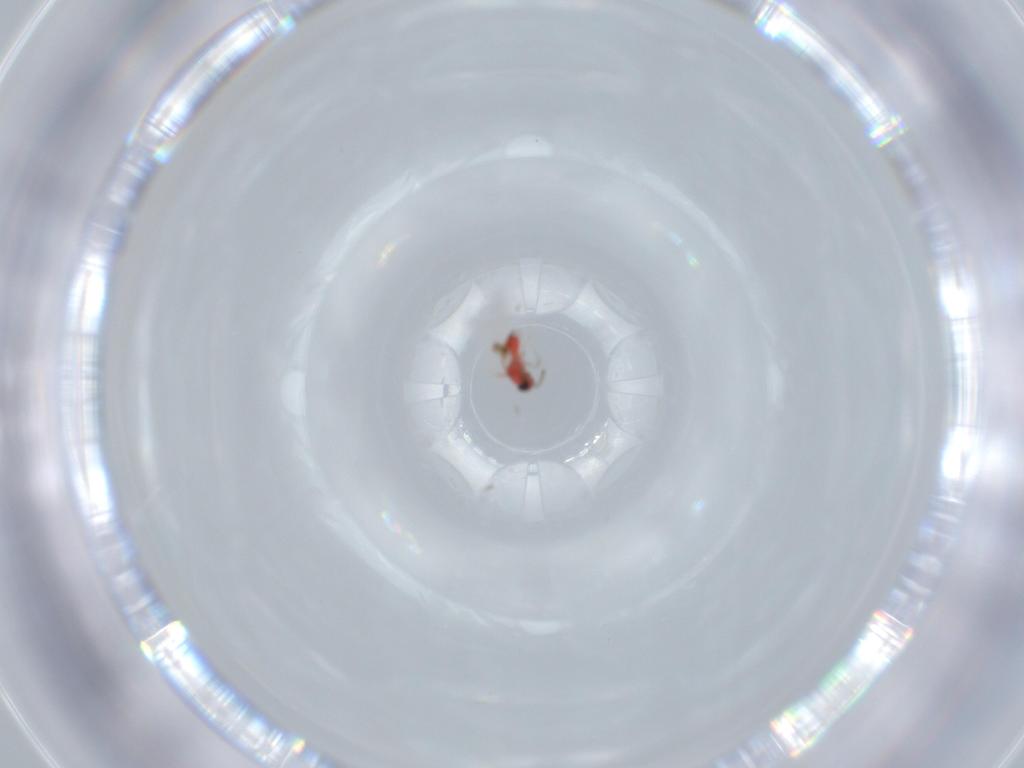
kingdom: Animalia
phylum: Arthropoda
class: Insecta
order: Hymenoptera
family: Trichogrammatidae
